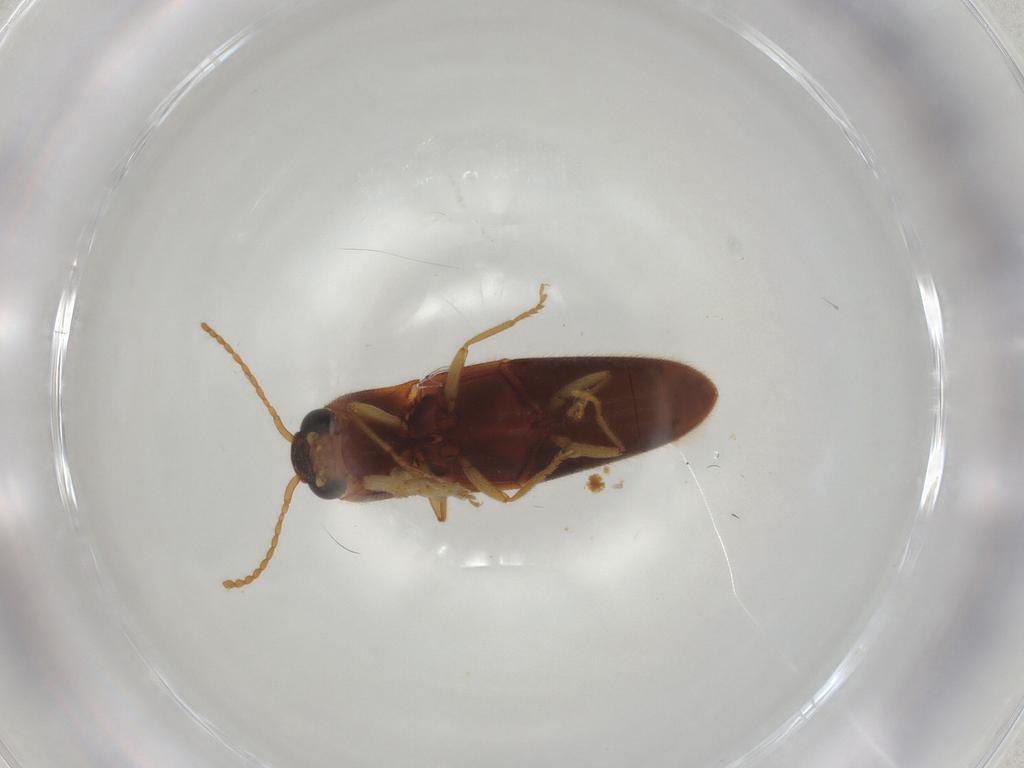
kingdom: Animalia
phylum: Arthropoda
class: Insecta
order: Coleoptera
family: Elateridae
